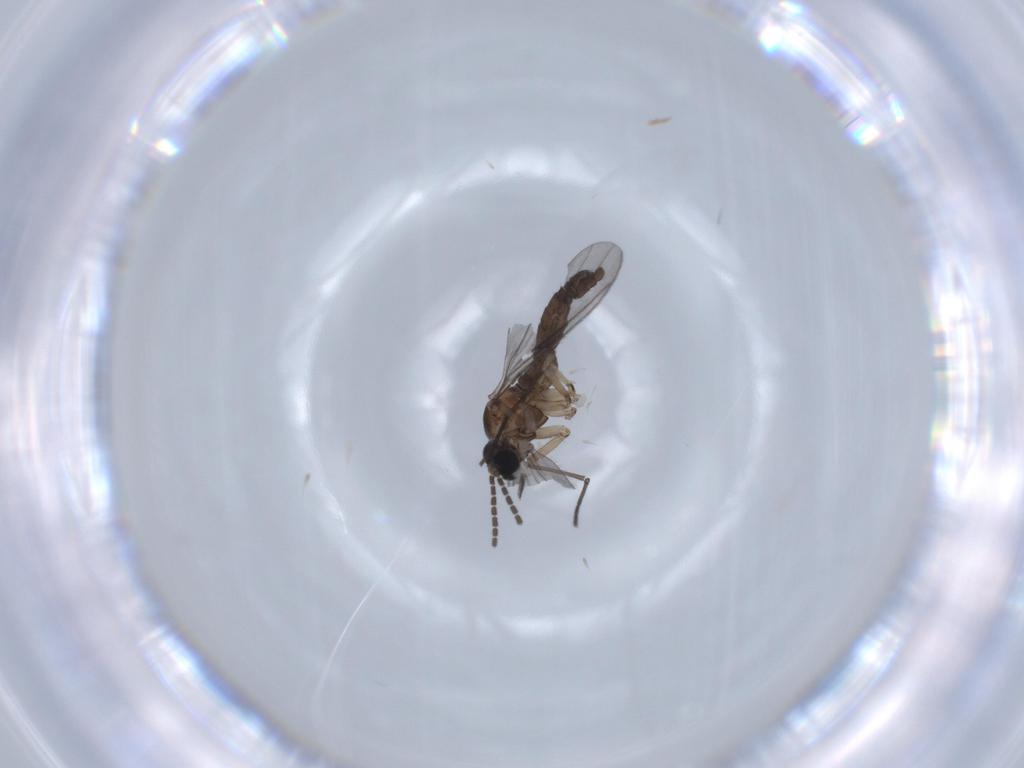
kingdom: Animalia
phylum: Arthropoda
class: Insecta
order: Diptera
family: Sciaridae
